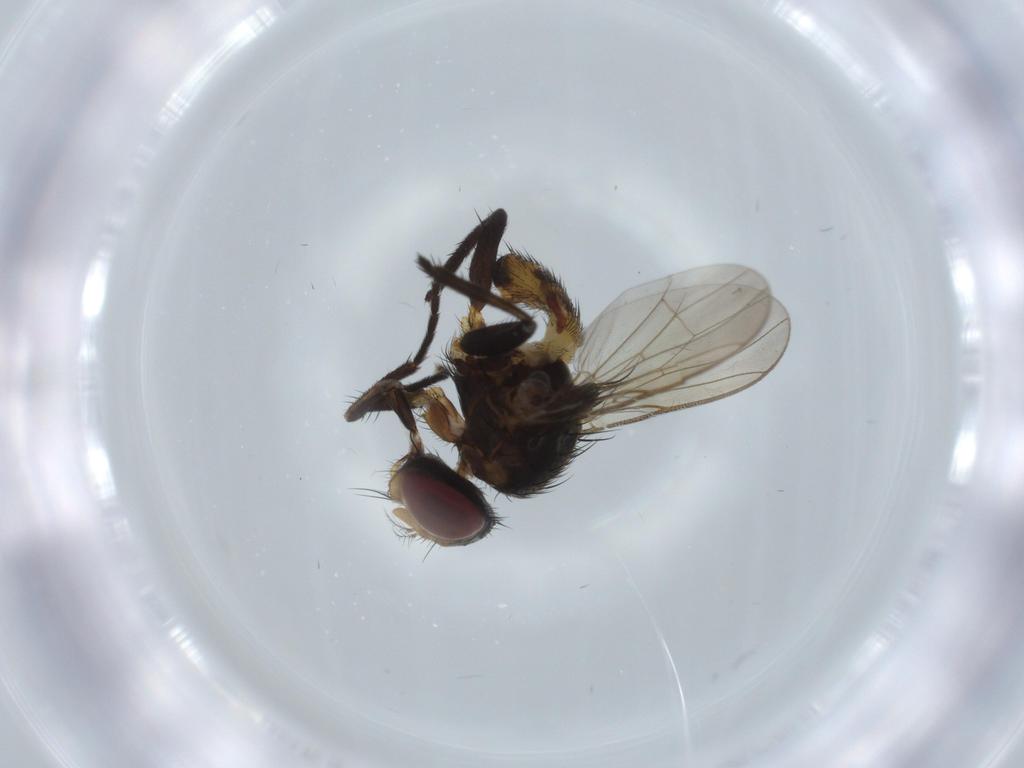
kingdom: Animalia
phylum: Arthropoda
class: Insecta
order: Diptera
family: Anthomyiidae
